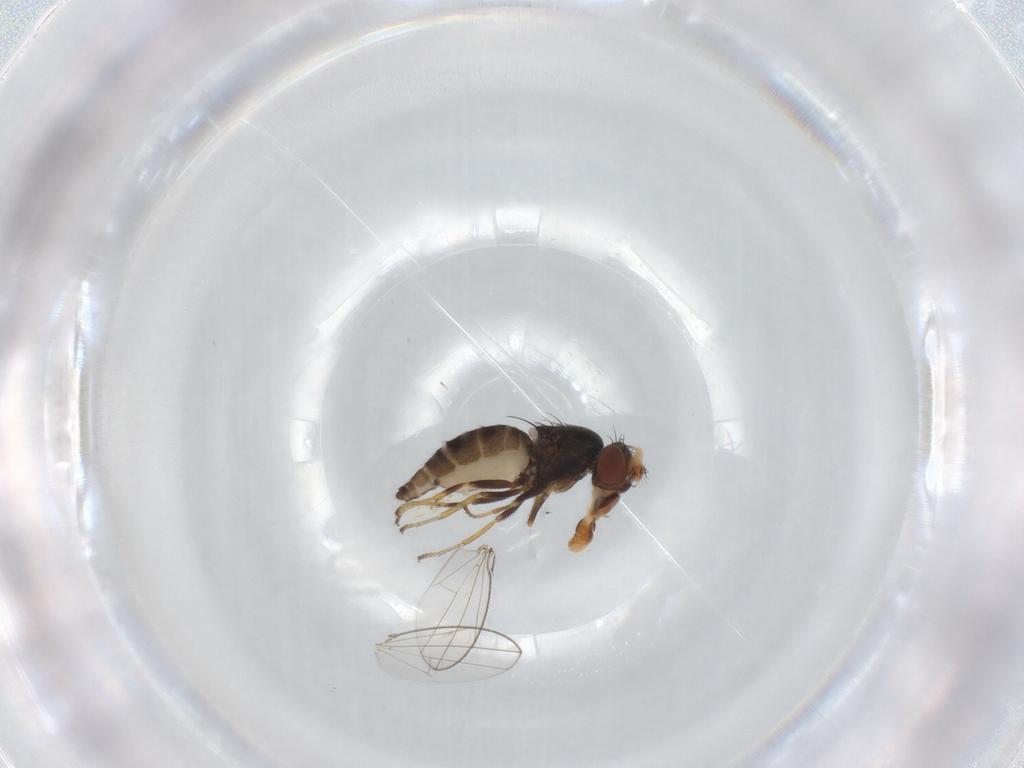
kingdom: Animalia
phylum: Arthropoda
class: Insecta
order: Diptera
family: Ephydridae
